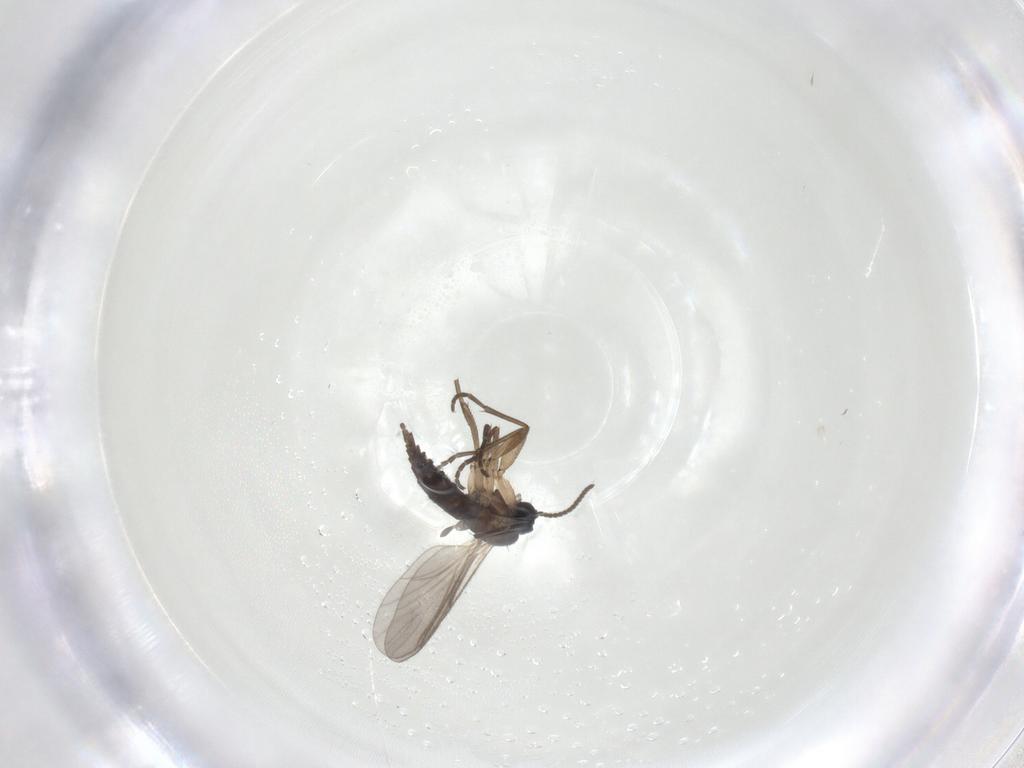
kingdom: Animalia
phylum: Arthropoda
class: Insecta
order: Diptera
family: Sciaridae
